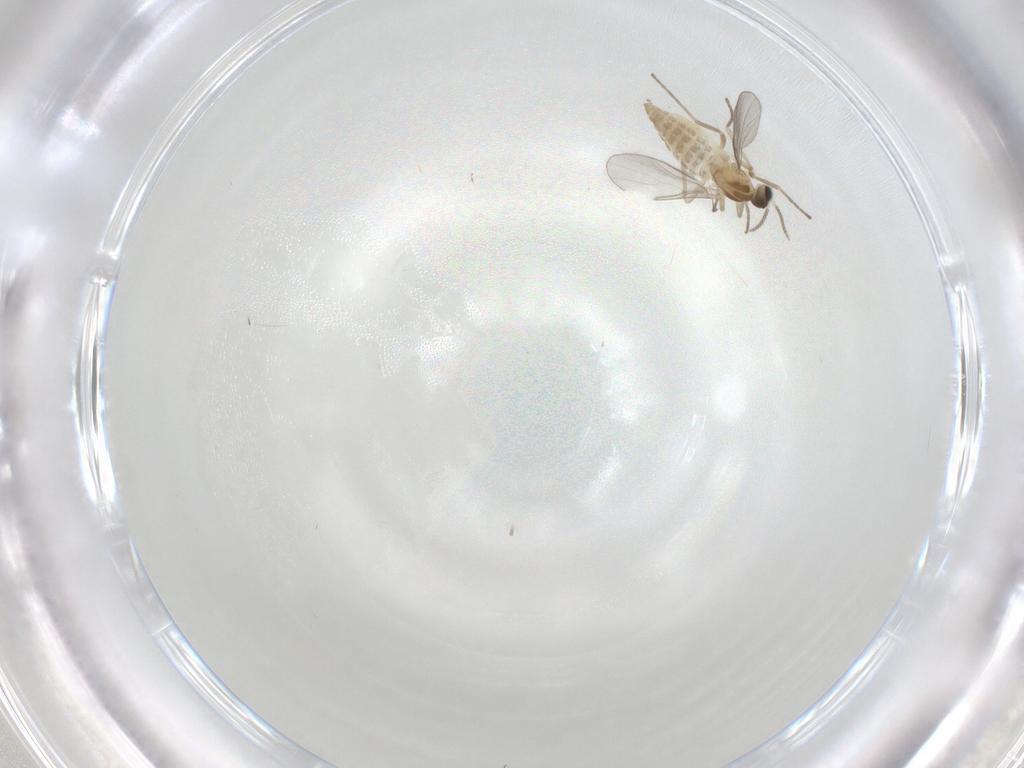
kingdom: Animalia
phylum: Arthropoda
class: Insecta
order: Diptera
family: Cecidomyiidae
